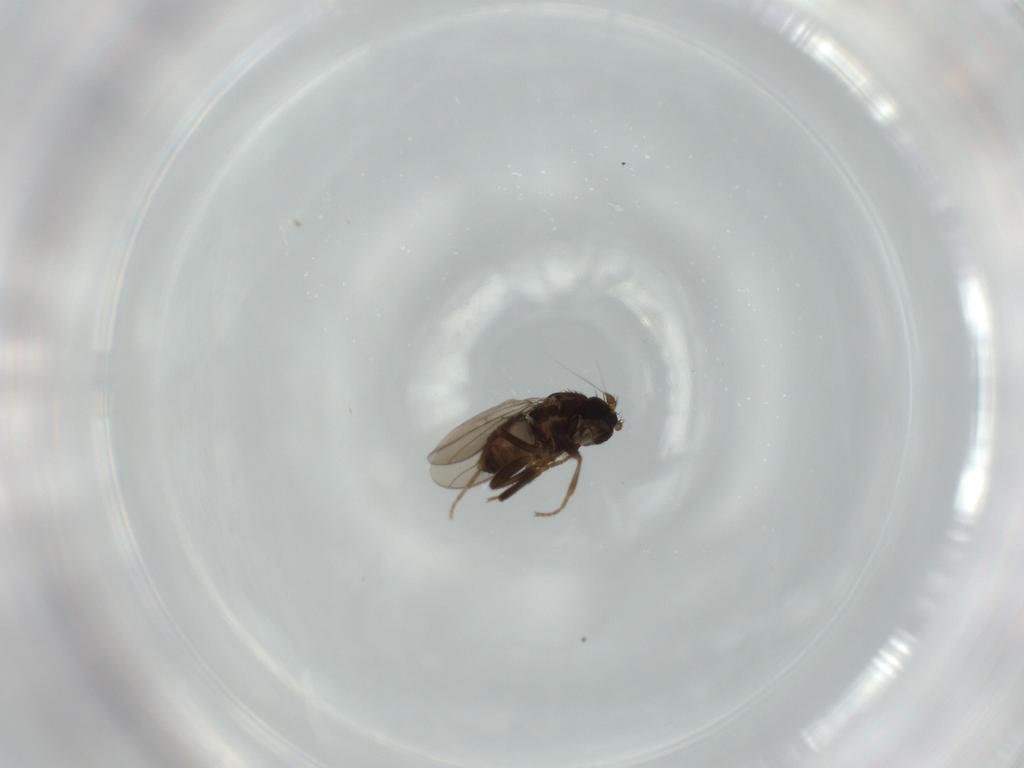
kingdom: Animalia
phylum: Arthropoda
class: Insecta
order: Diptera
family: Sphaeroceridae
